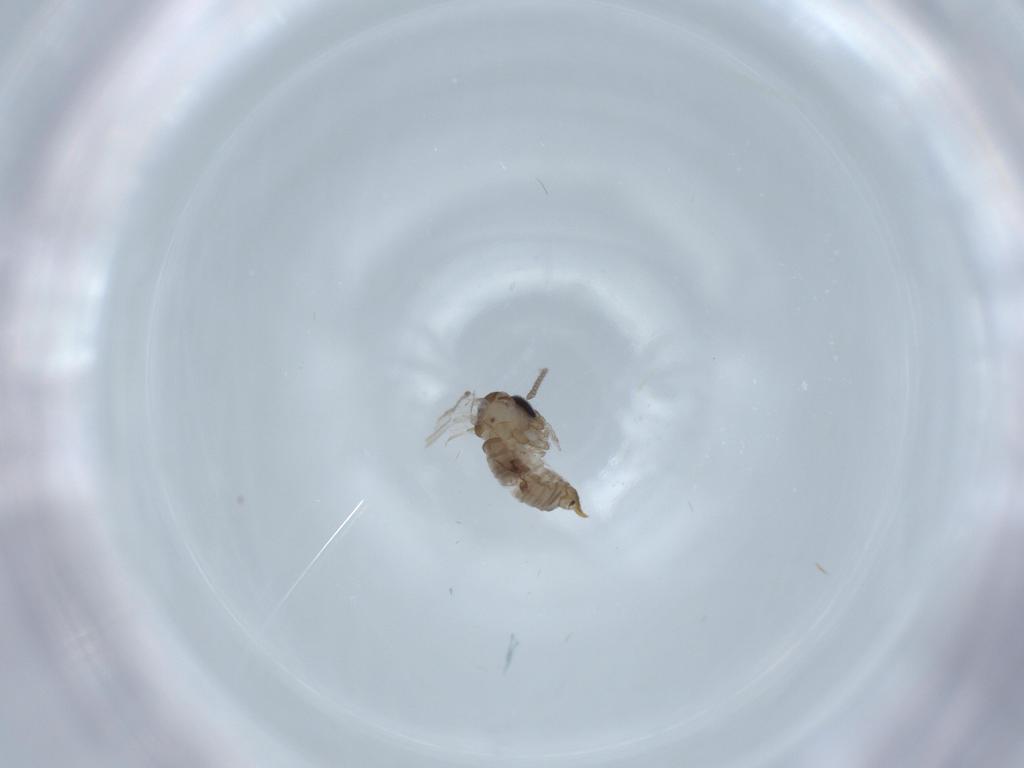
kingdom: Animalia
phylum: Arthropoda
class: Insecta
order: Diptera
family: Psychodidae
